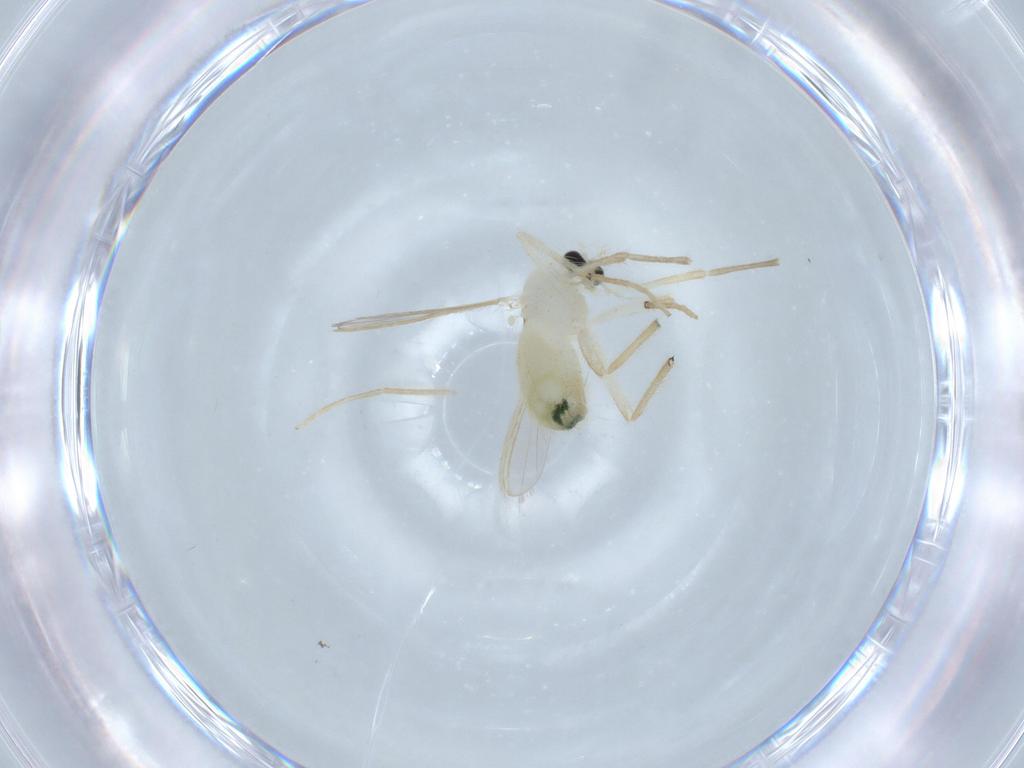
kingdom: Animalia
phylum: Arthropoda
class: Insecta
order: Diptera
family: Chironomidae
